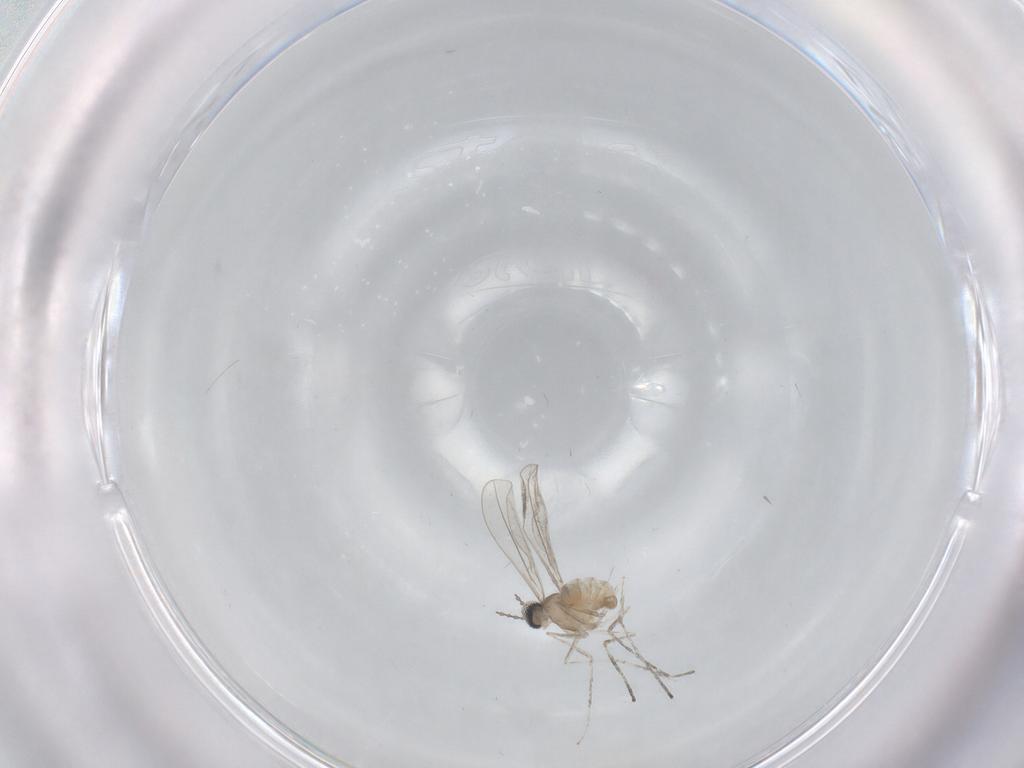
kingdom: Animalia
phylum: Arthropoda
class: Insecta
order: Diptera
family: Cecidomyiidae
